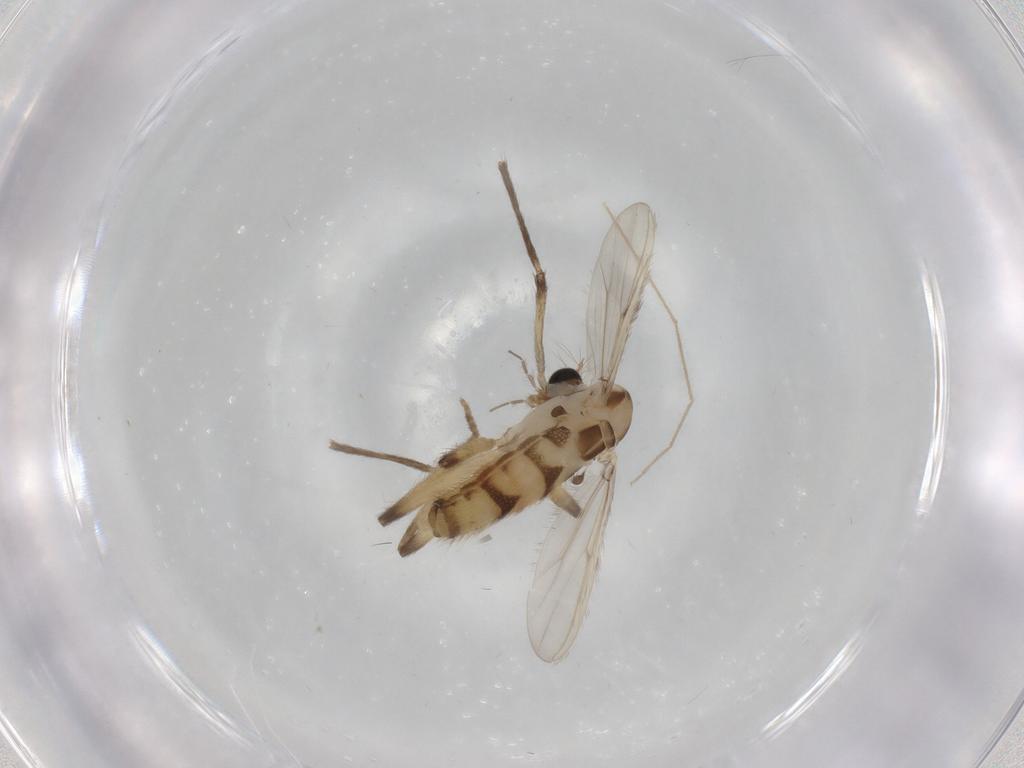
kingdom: Animalia
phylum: Arthropoda
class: Insecta
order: Diptera
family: Chironomidae
